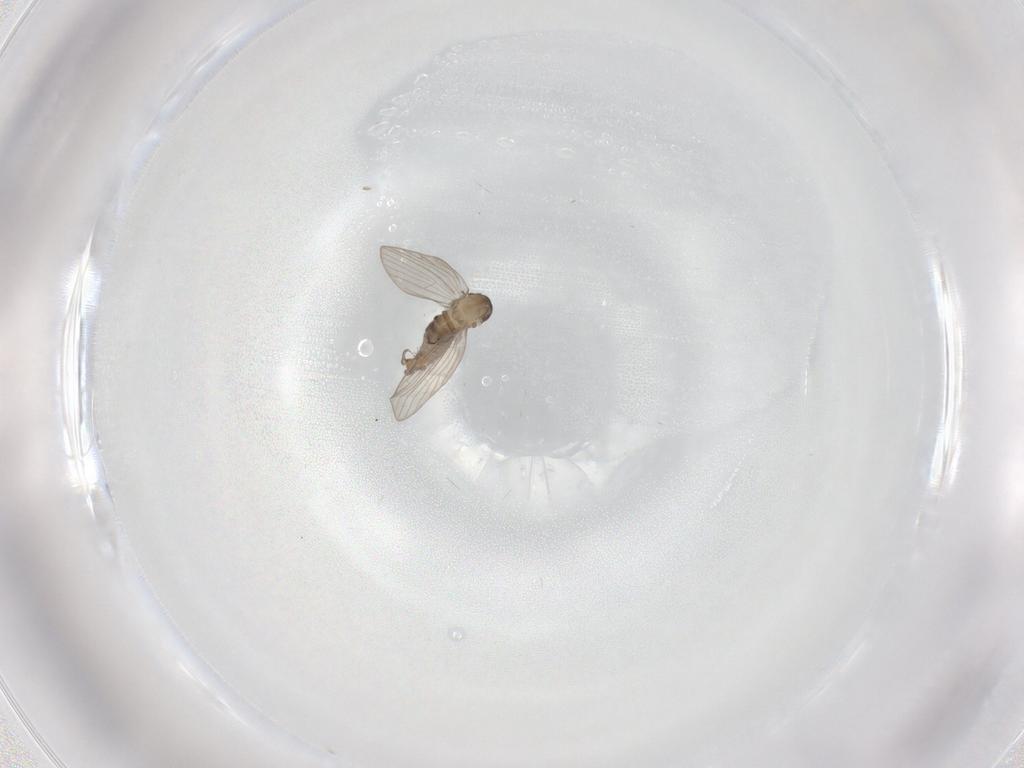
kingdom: Animalia
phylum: Arthropoda
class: Insecta
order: Diptera
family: Psychodidae
